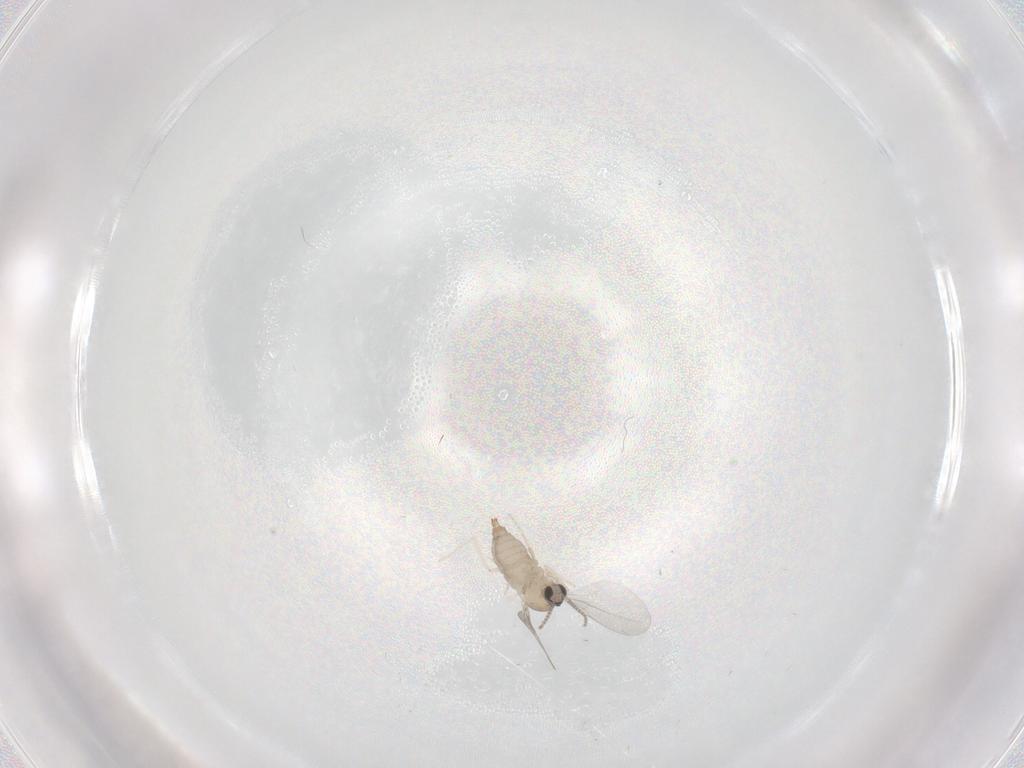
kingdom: Animalia
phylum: Arthropoda
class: Insecta
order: Diptera
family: Cecidomyiidae
